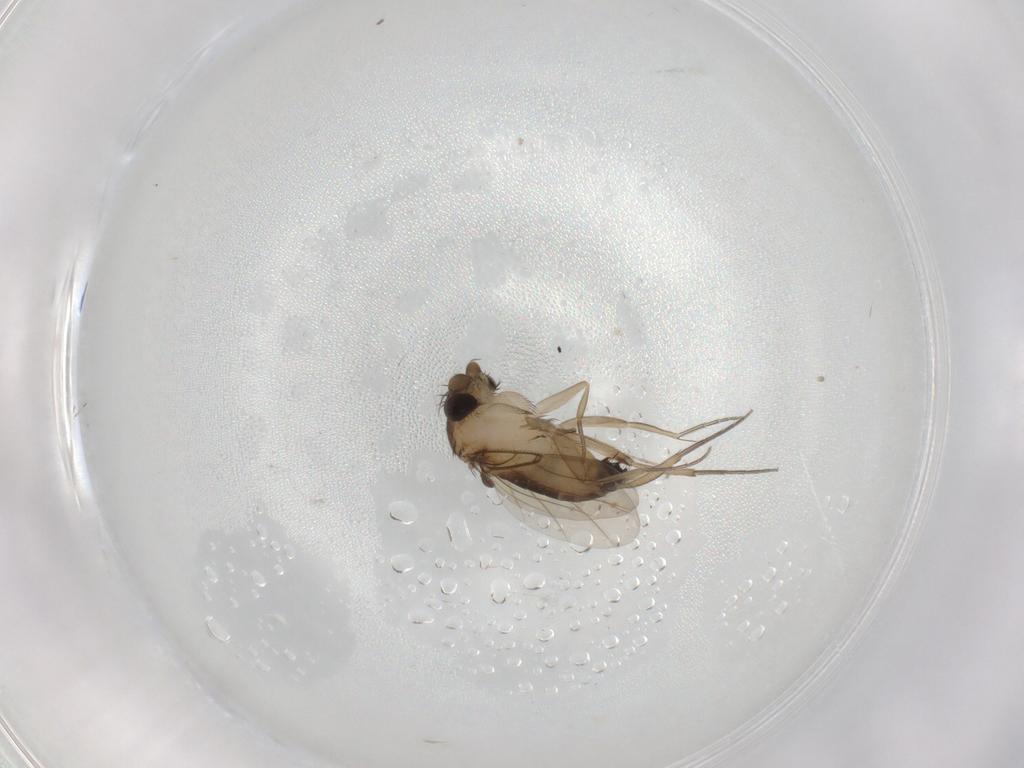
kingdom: Animalia
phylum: Arthropoda
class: Insecta
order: Diptera
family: Phoridae
